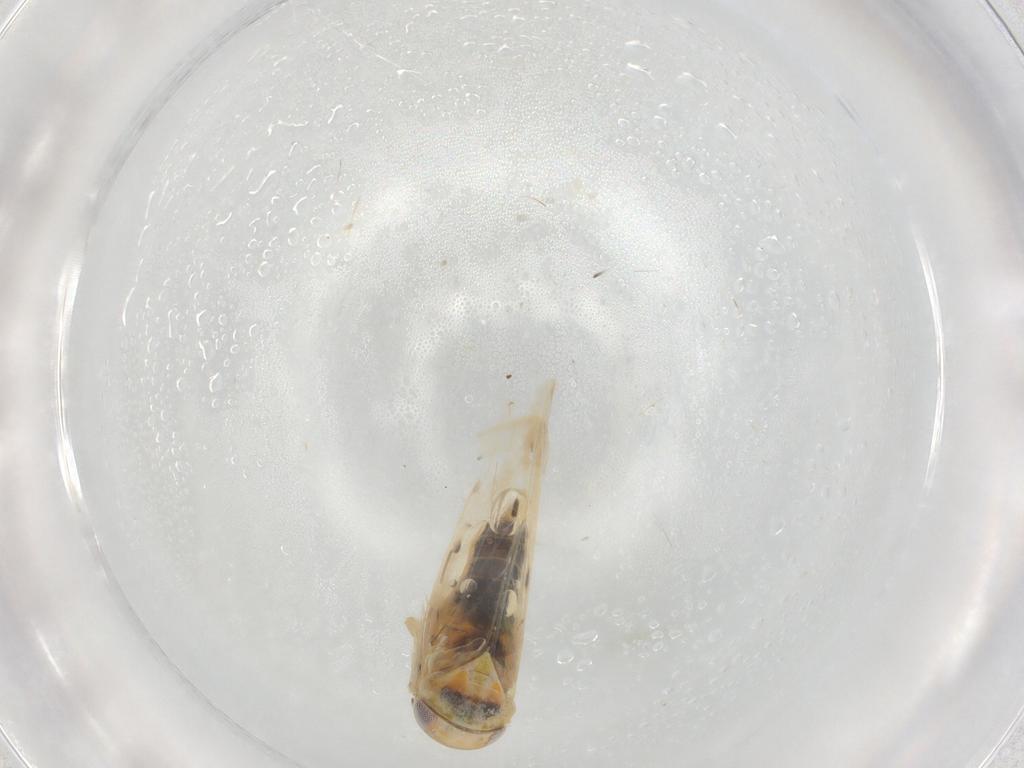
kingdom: Animalia
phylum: Arthropoda
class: Insecta
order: Hemiptera
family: Cicadellidae
